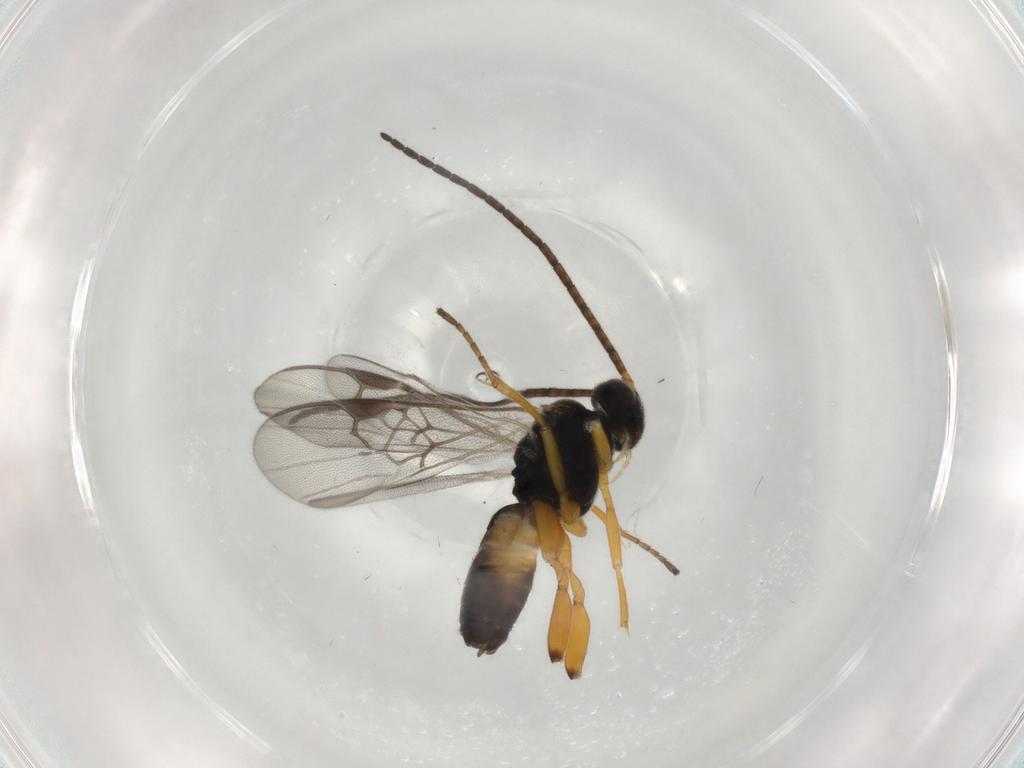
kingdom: Animalia
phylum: Arthropoda
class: Insecta
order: Hymenoptera
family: Braconidae
